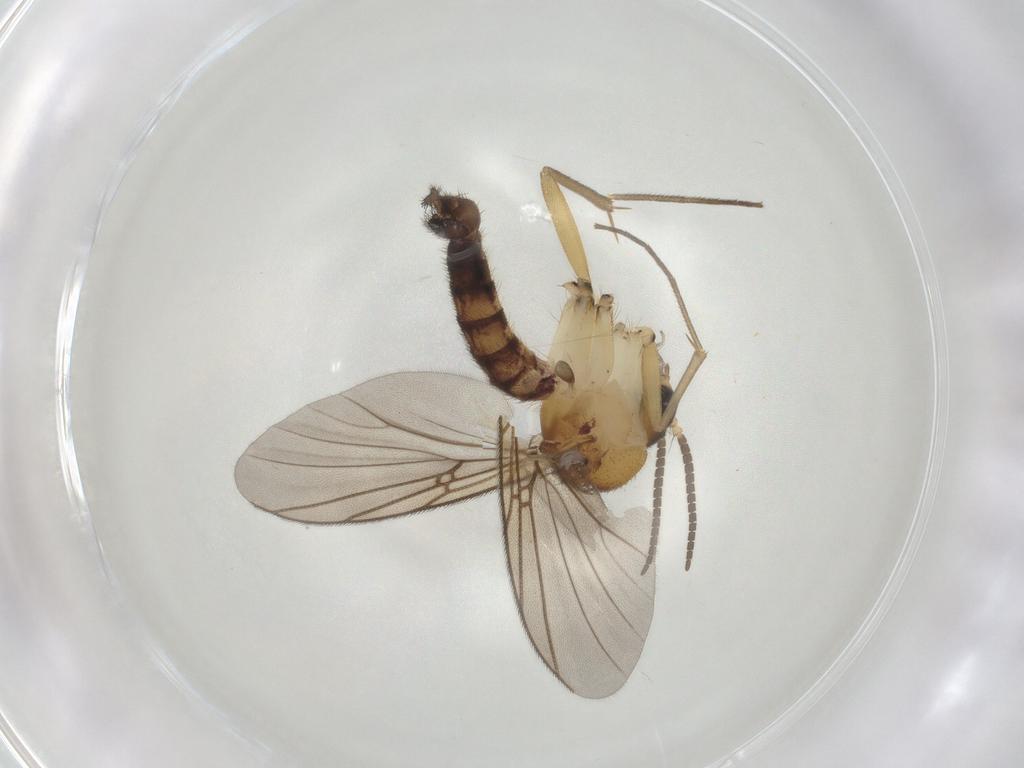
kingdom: Animalia
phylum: Arthropoda
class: Insecta
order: Diptera
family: Mycetophilidae
